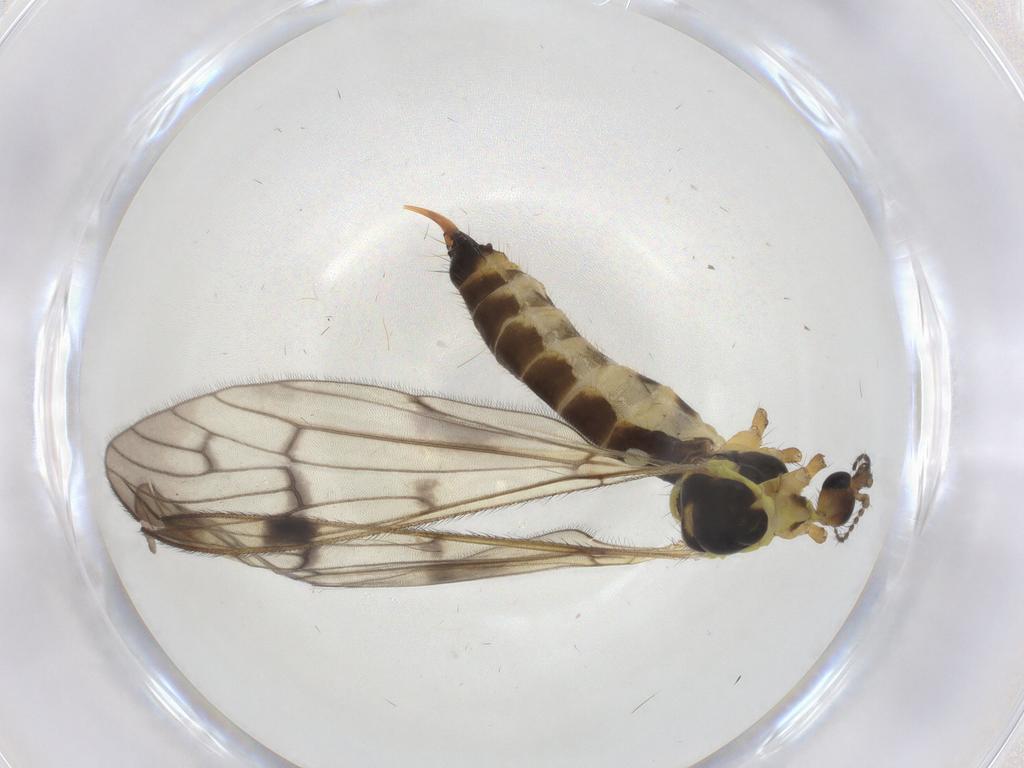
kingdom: Animalia
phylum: Arthropoda
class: Insecta
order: Diptera
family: Limoniidae
